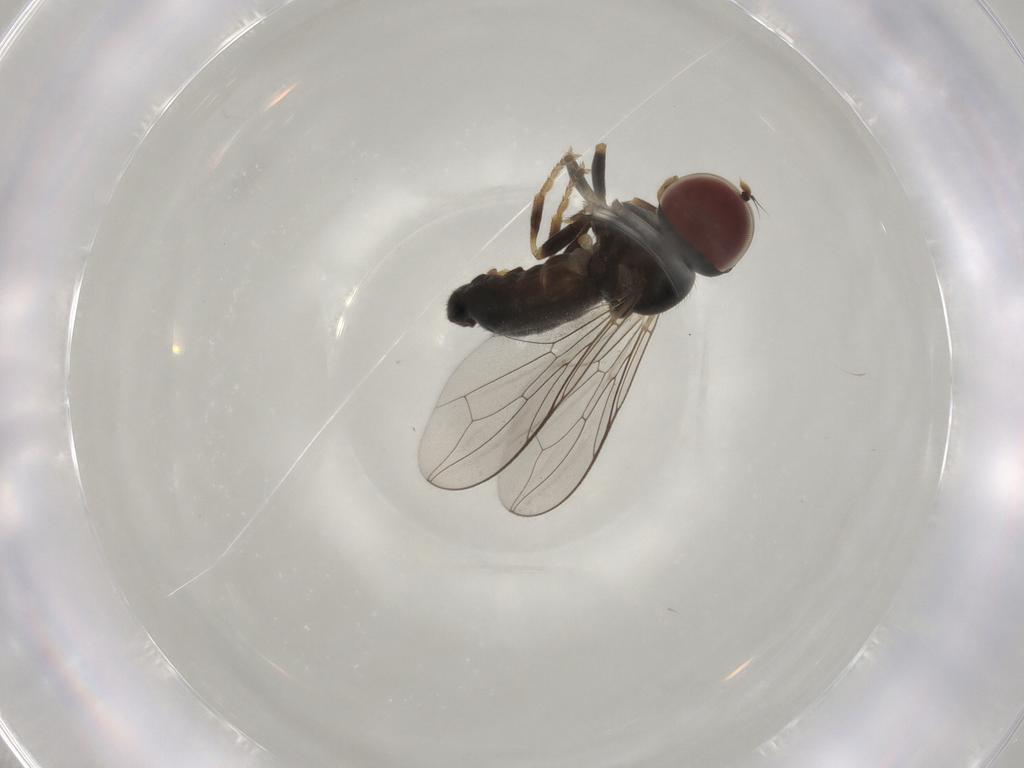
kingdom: Animalia
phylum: Arthropoda
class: Insecta
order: Diptera
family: Pipunculidae
